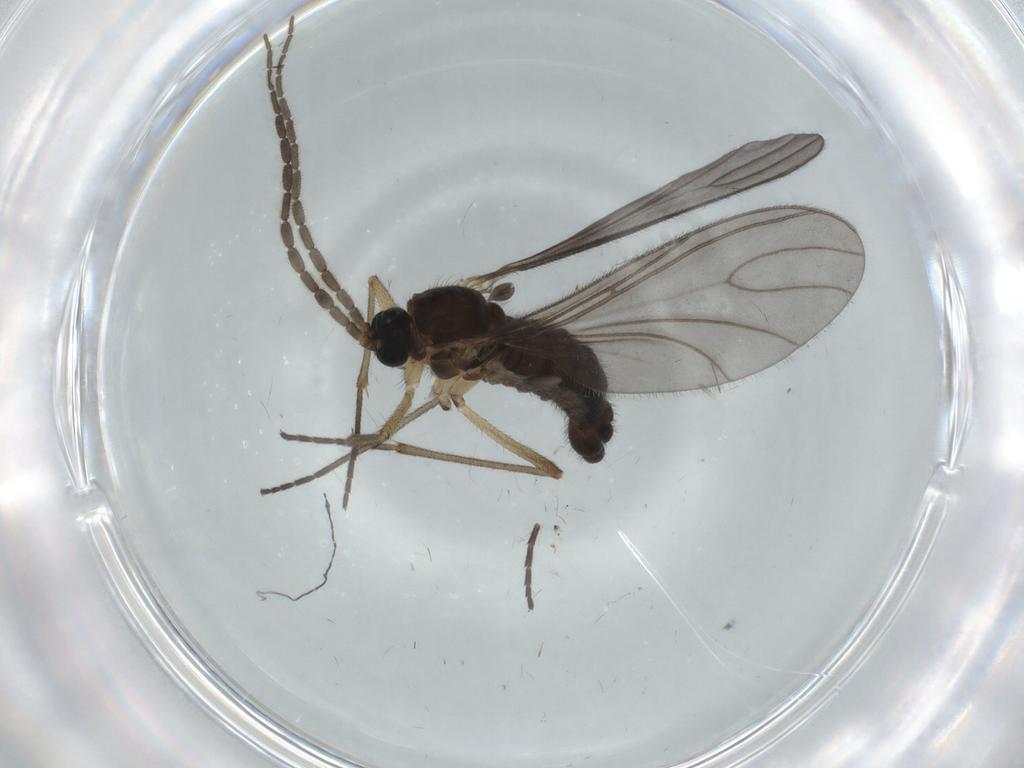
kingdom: Animalia
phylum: Arthropoda
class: Insecta
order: Diptera
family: Sciaridae
